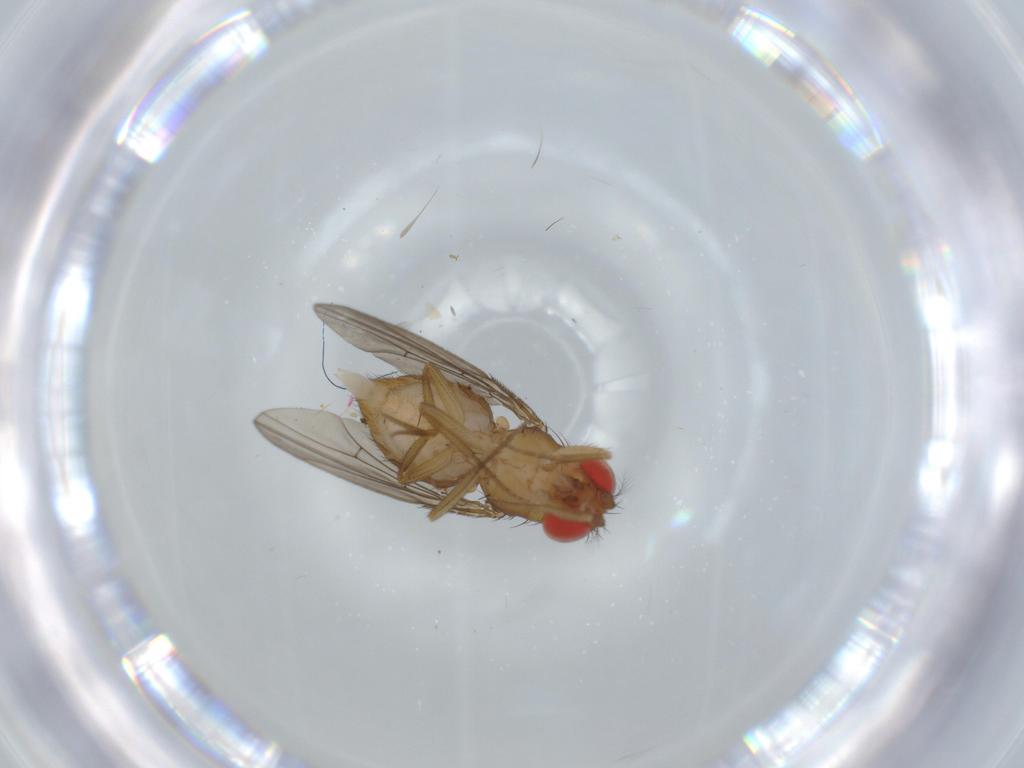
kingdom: Animalia
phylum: Arthropoda
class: Insecta
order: Diptera
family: Drosophilidae
